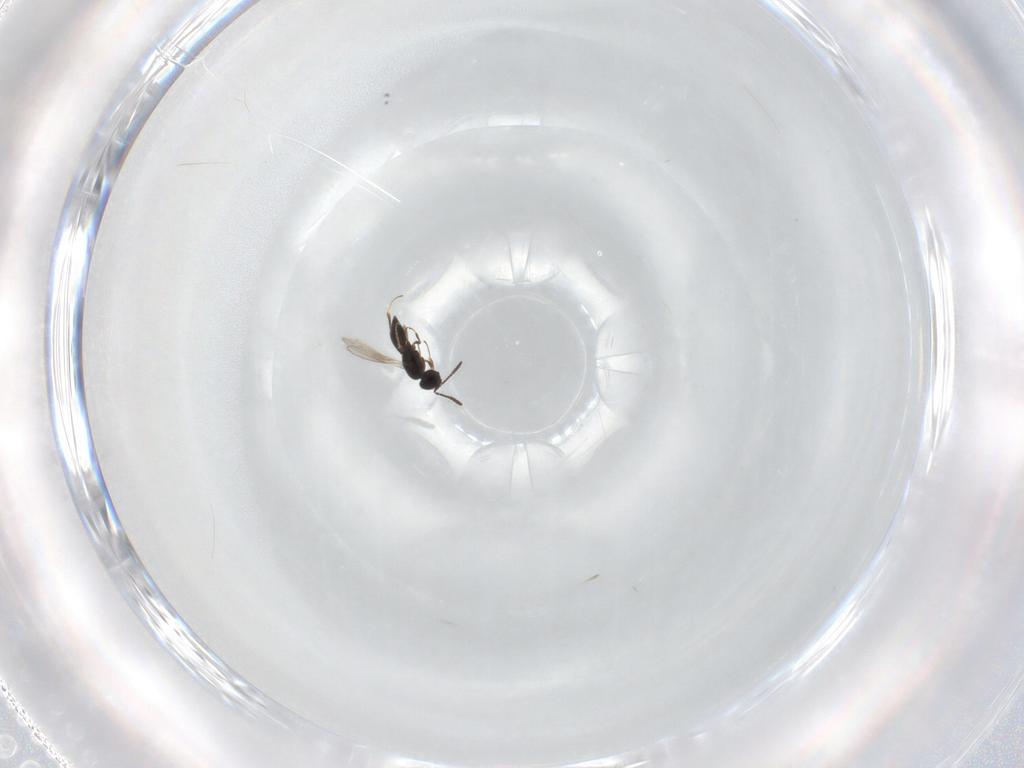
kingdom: Animalia
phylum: Arthropoda
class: Insecta
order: Hymenoptera
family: Scelionidae
